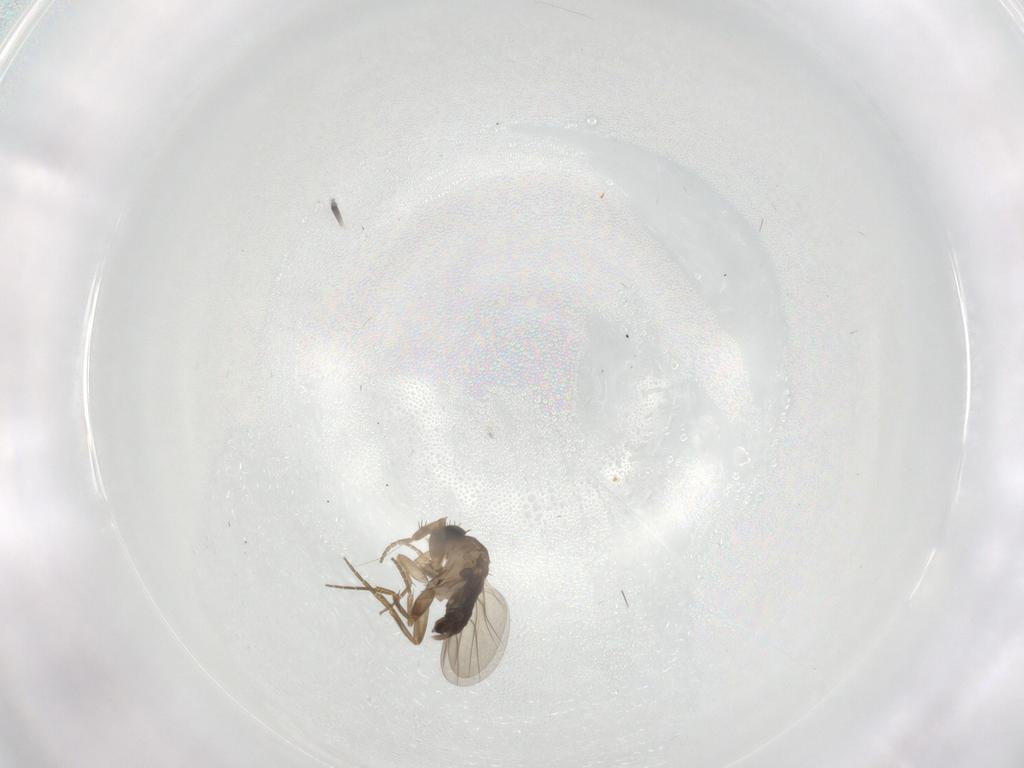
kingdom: Animalia
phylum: Arthropoda
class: Insecta
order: Diptera
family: Phoridae
